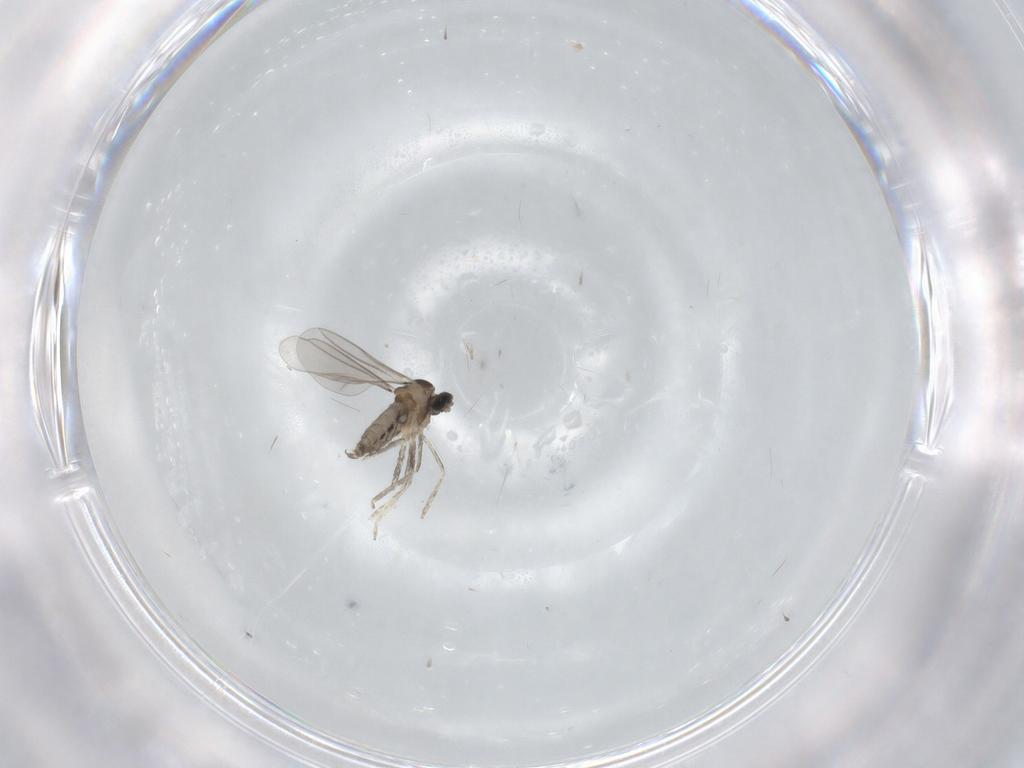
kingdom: Animalia
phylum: Arthropoda
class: Insecta
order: Diptera
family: Cecidomyiidae
